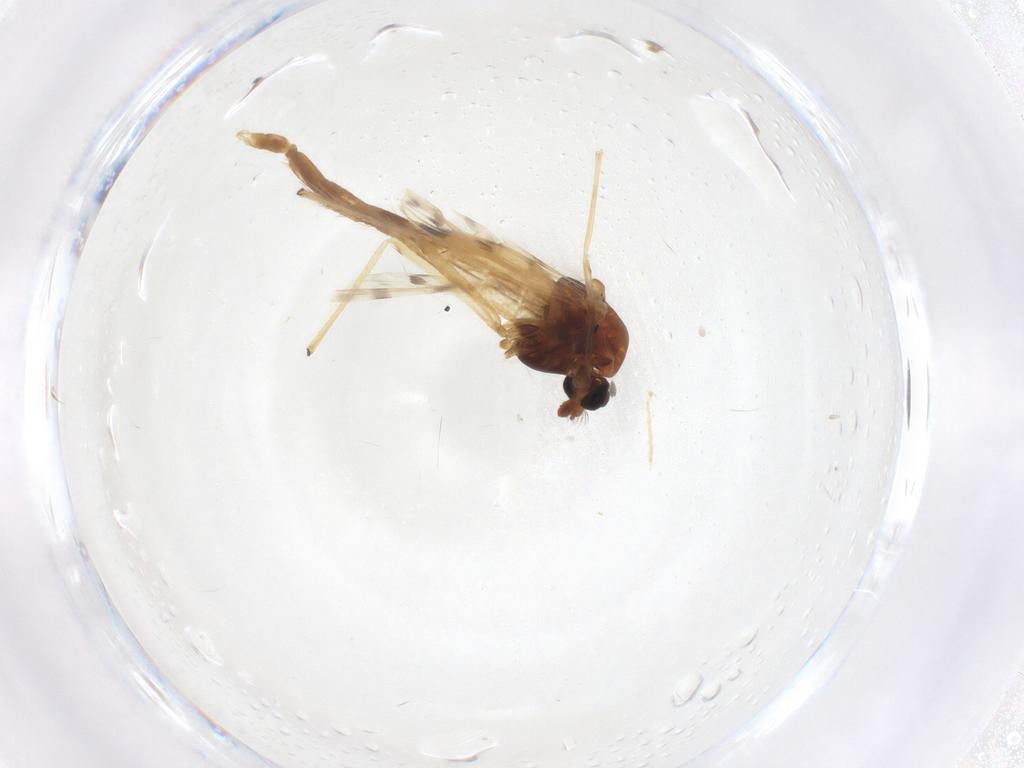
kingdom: Animalia
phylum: Arthropoda
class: Insecta
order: Diptera
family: Chironomidae
